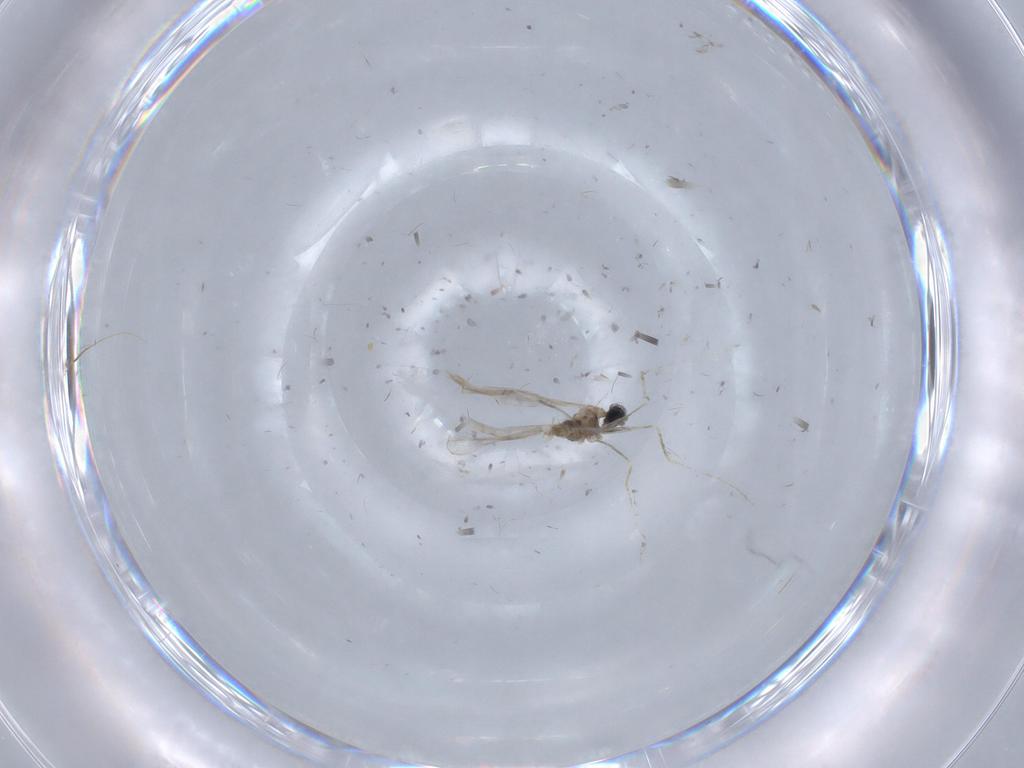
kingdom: Animalia
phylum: Arthropoda
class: Insecta
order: Diptera
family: Cecidomyiidae
